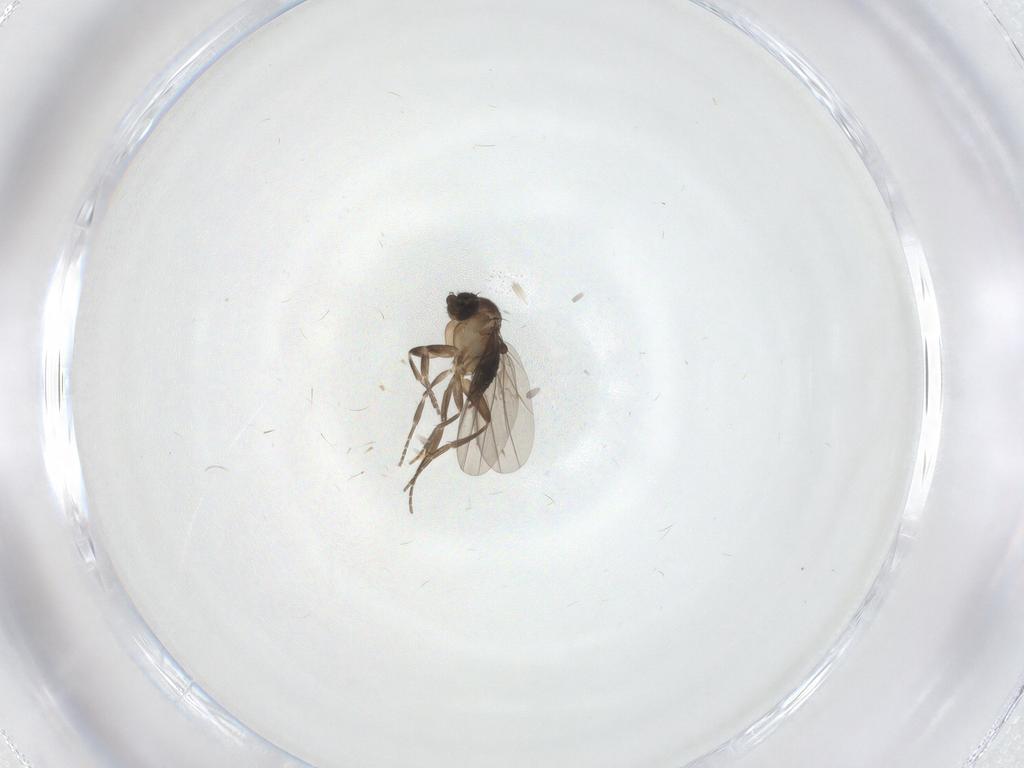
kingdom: Animalia
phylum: Arthropoda
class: Insecta
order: Diptera
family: Phoridae
